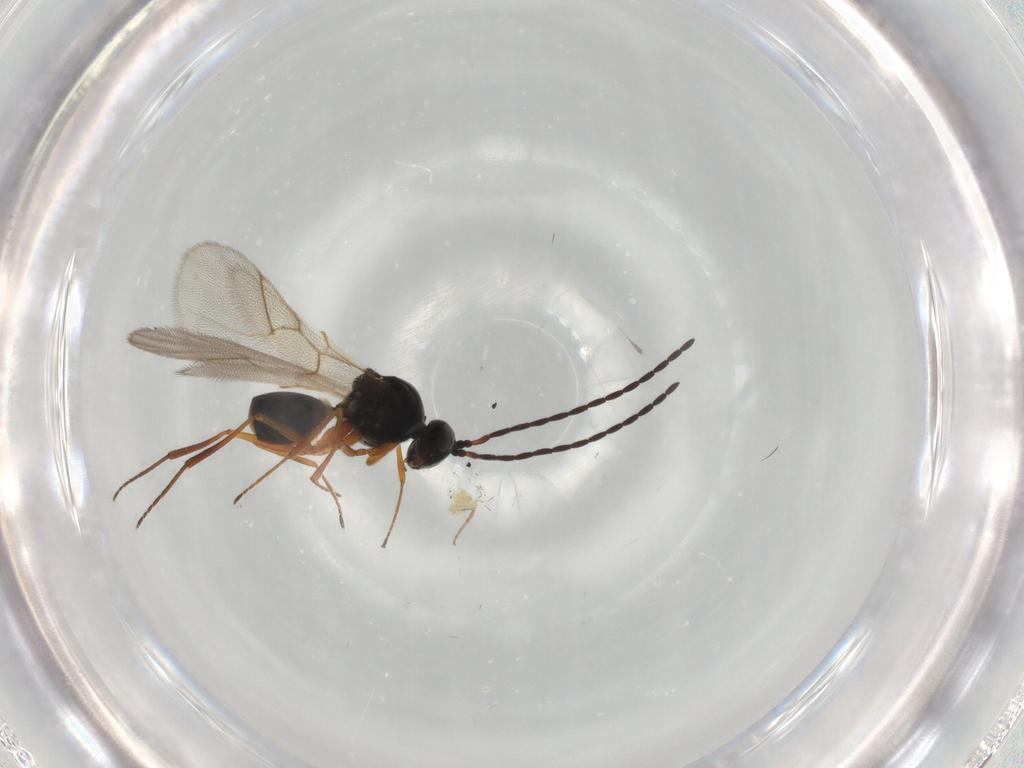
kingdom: Animalia
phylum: Arthropoda
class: Insecta
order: Hymenoptera
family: Figitidae
